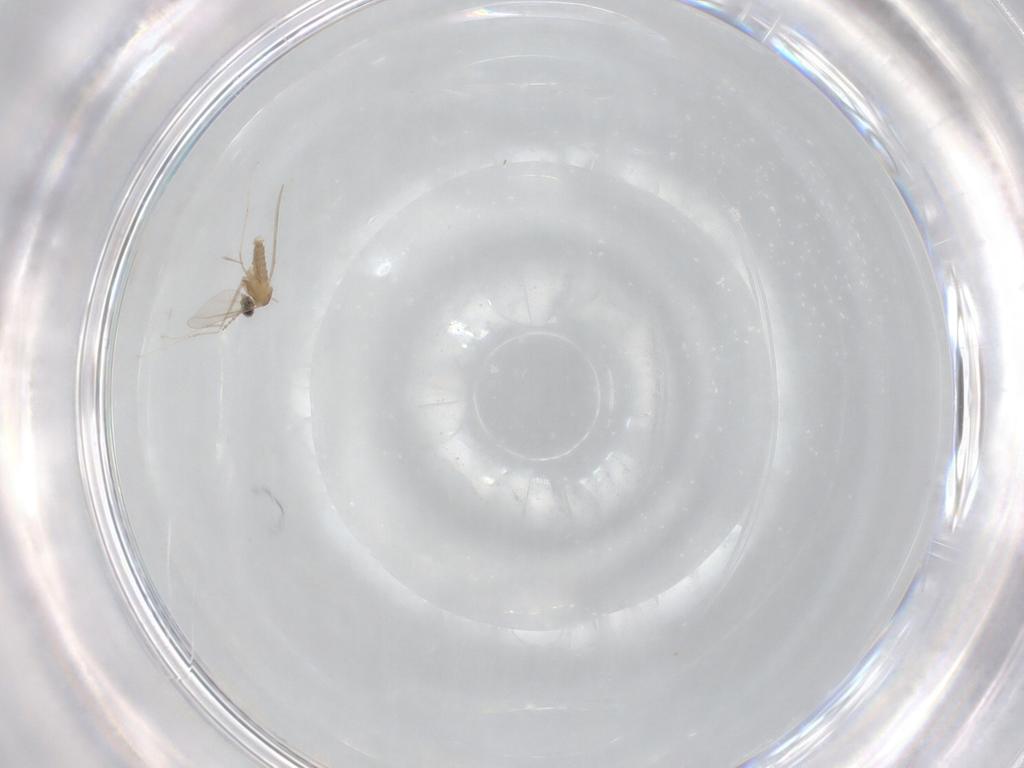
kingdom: Animalia
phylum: Arthropoda
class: Insecta
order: Diptera
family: Cecidomyiidae
